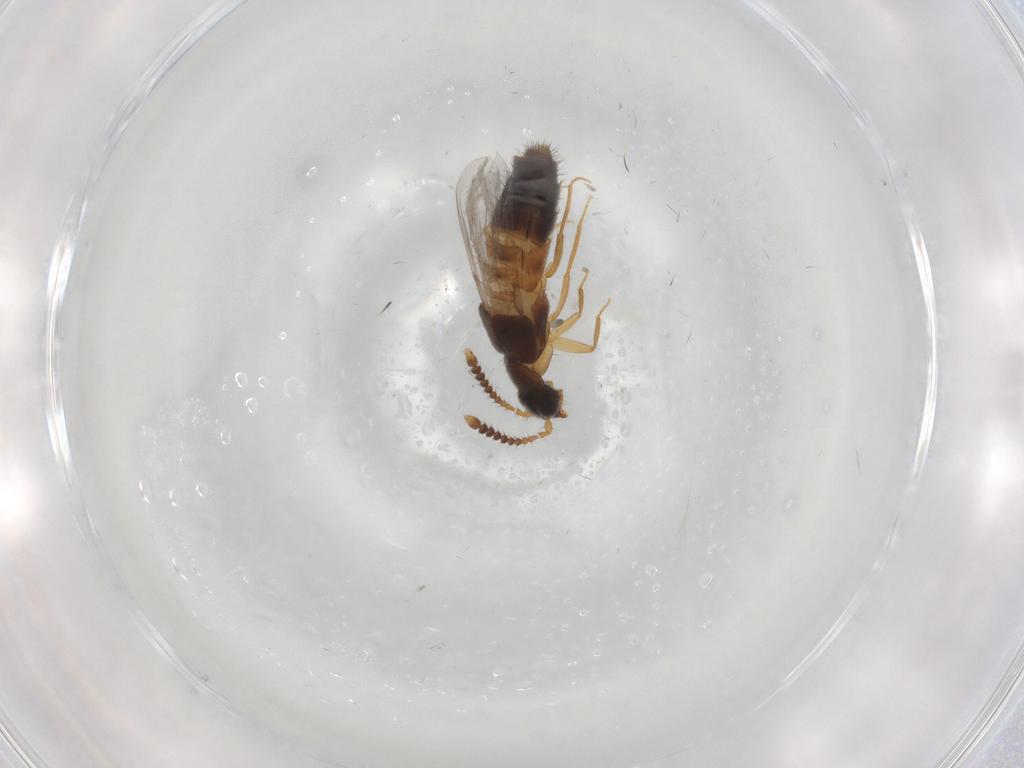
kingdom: Animalia
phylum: Arthropoda
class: Insecta
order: Coleoptera
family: Staphylinidae
